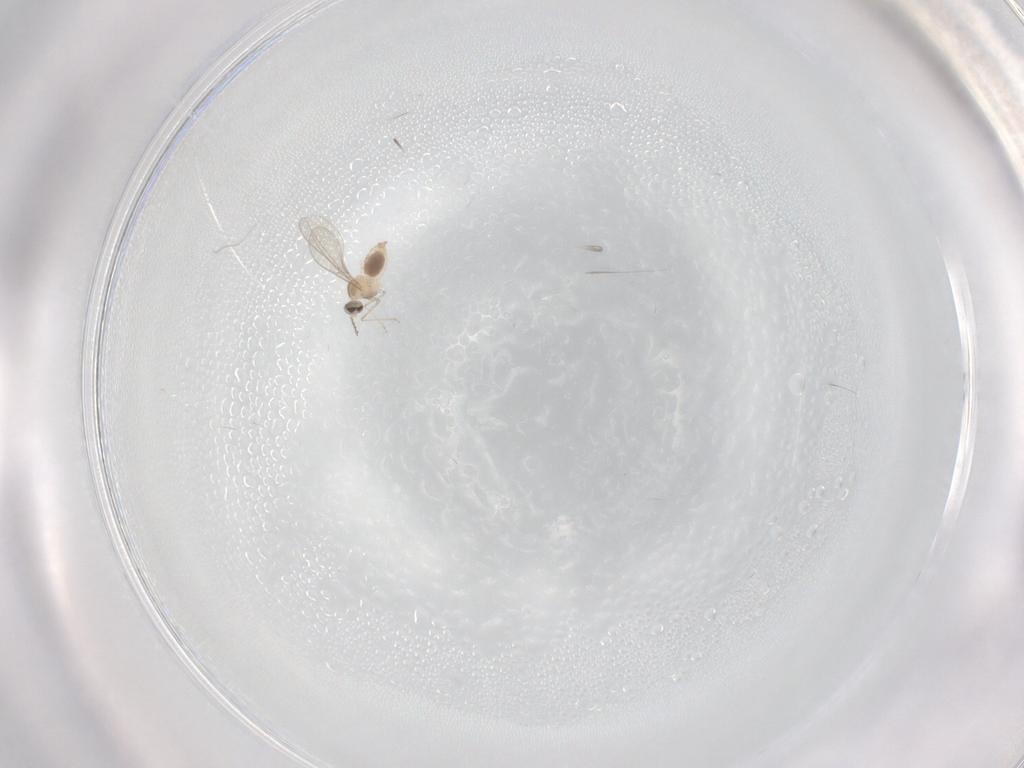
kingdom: Animalia
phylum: Arthropoda
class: Insecta
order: Diptera
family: Cecidomyiidae
